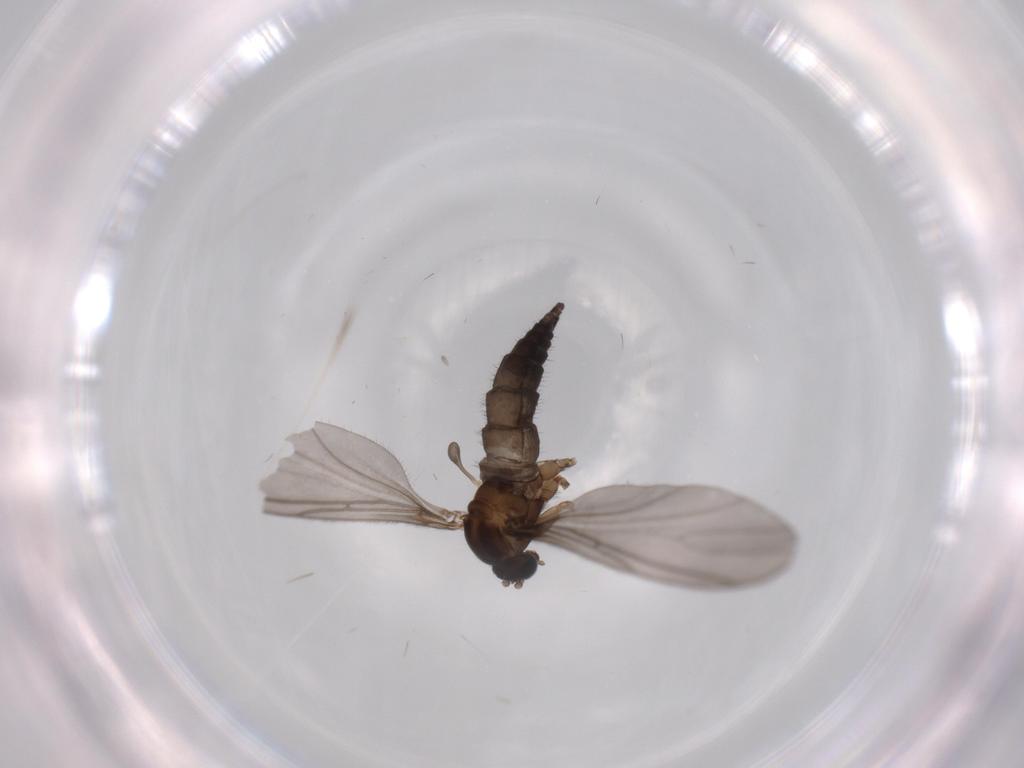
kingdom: Animalia
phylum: Arthropoda
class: Insecta
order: Diptera
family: Sciaridae
